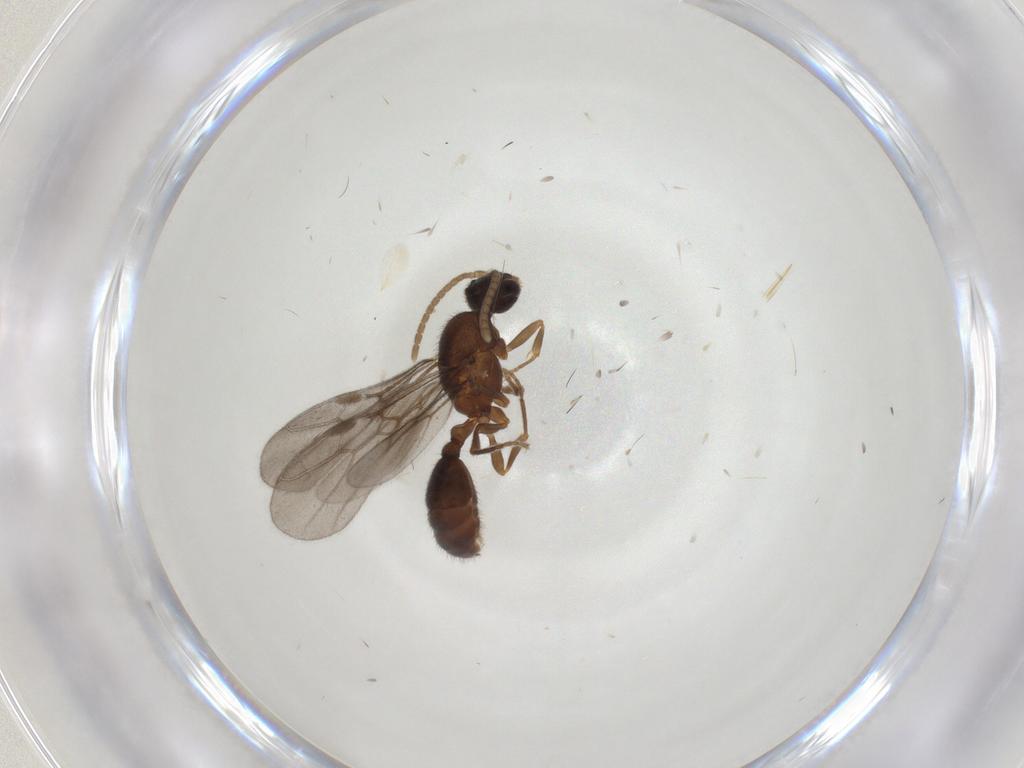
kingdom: Animalia
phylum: Arthropoda
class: Insecta
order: Hymenoptera
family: Formicidae
